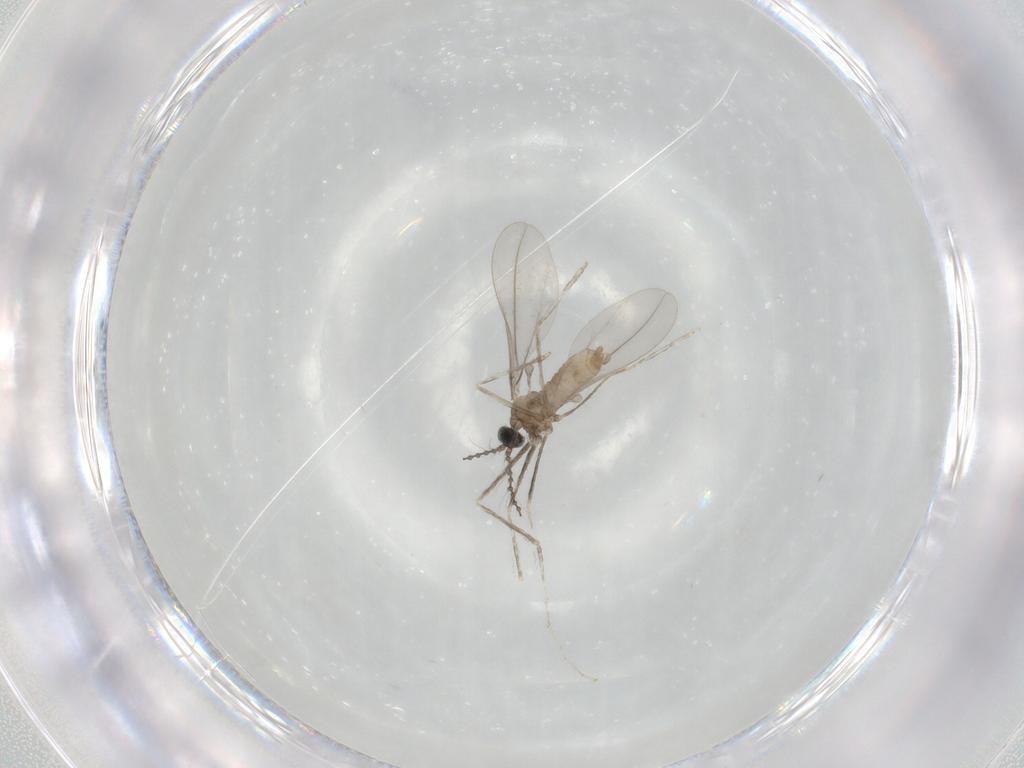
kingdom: Animalia
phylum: Arthropoda
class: Insecta
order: Diptera
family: Cecidomyiidae
